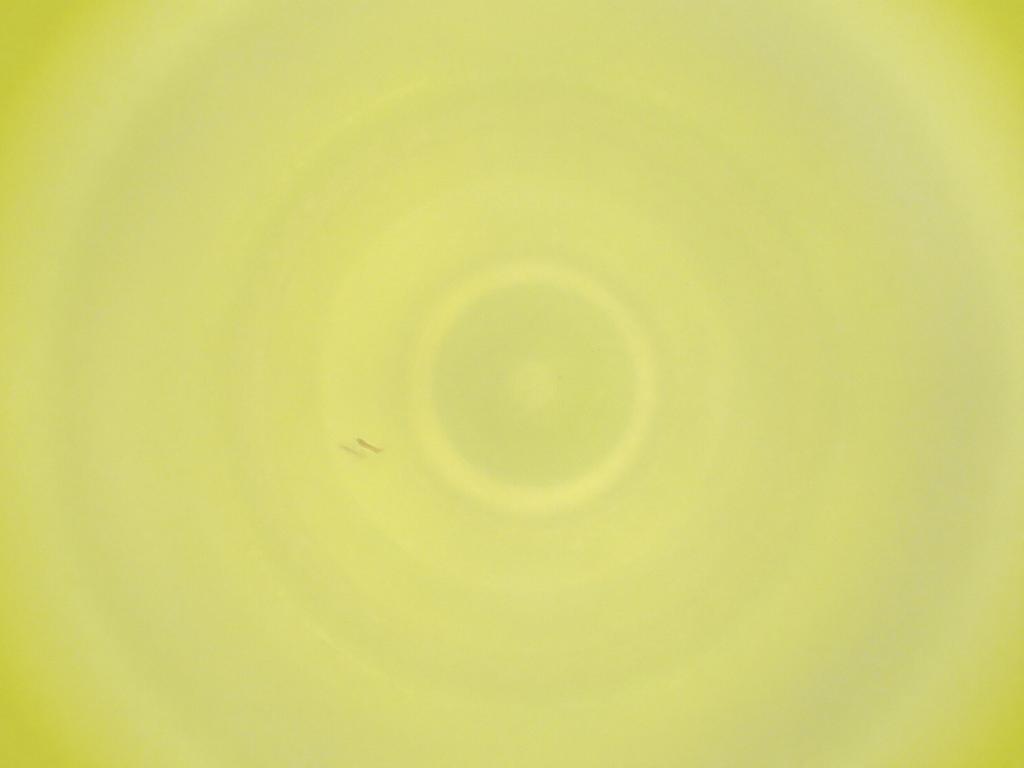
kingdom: Animalia
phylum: Arthropoda
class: Insecta
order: Diptera
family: Cecidomyiidae
